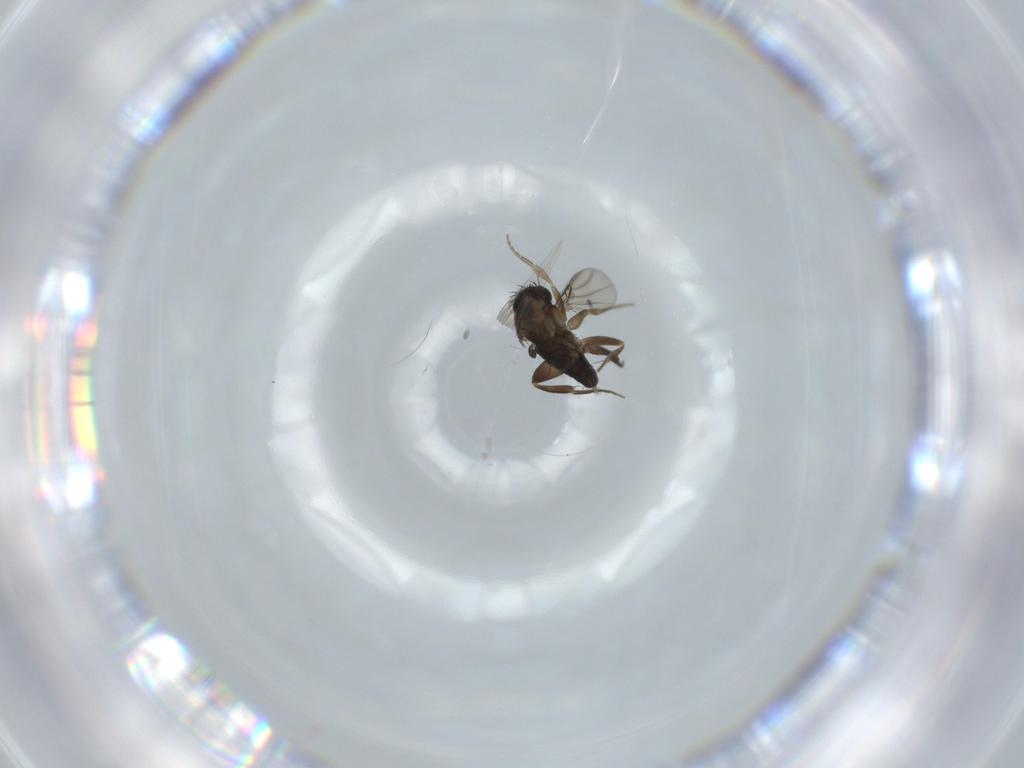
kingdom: Animalia
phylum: Arthropoda
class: Insecta
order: Diptera
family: Phoridae
